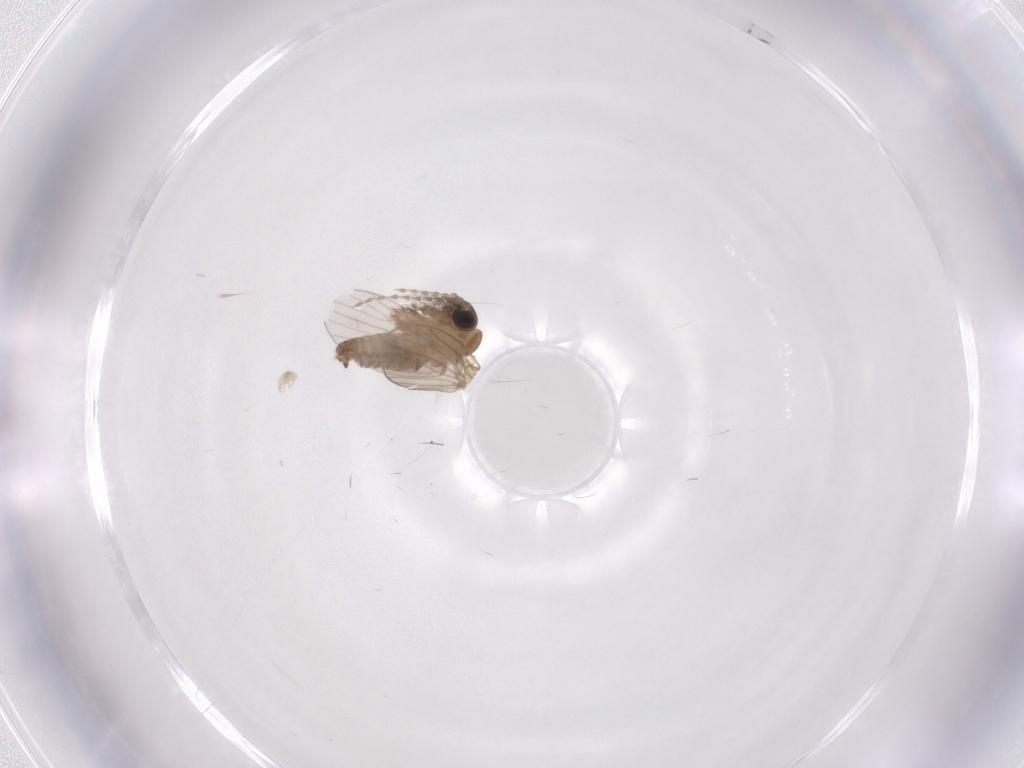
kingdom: Animalia
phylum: Arthropoda
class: Insecta
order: Diptera
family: Psychodidae
